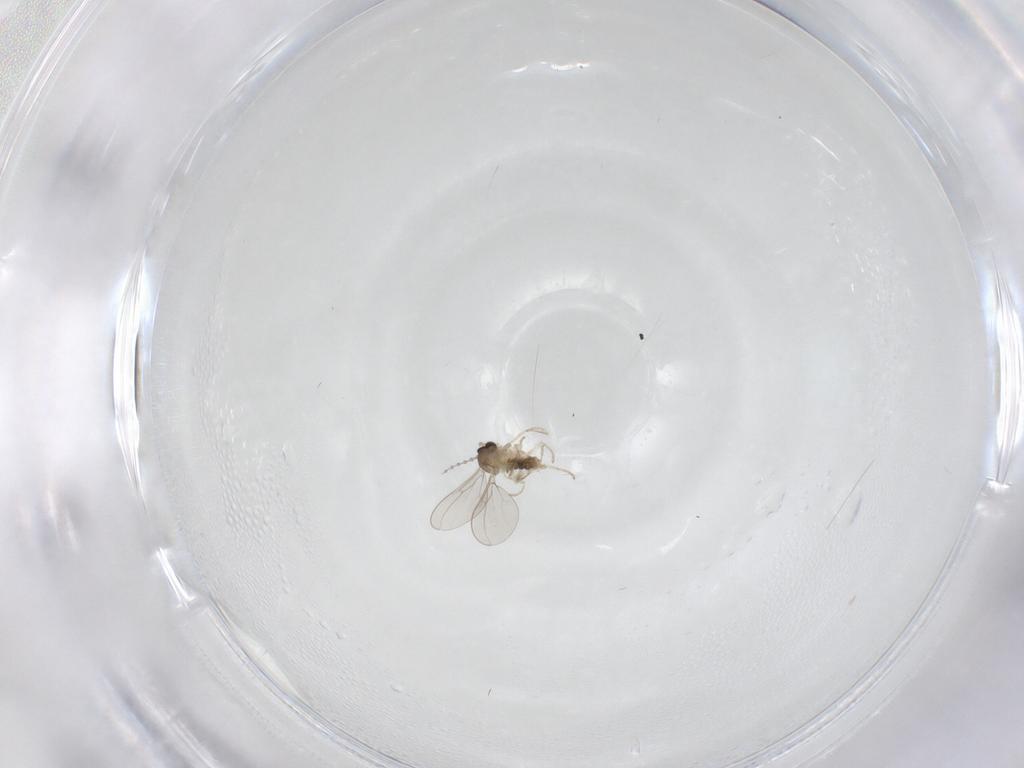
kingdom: Animalia
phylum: Arthropoda
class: Insecta
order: Diptera
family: Cecidomyiidae
